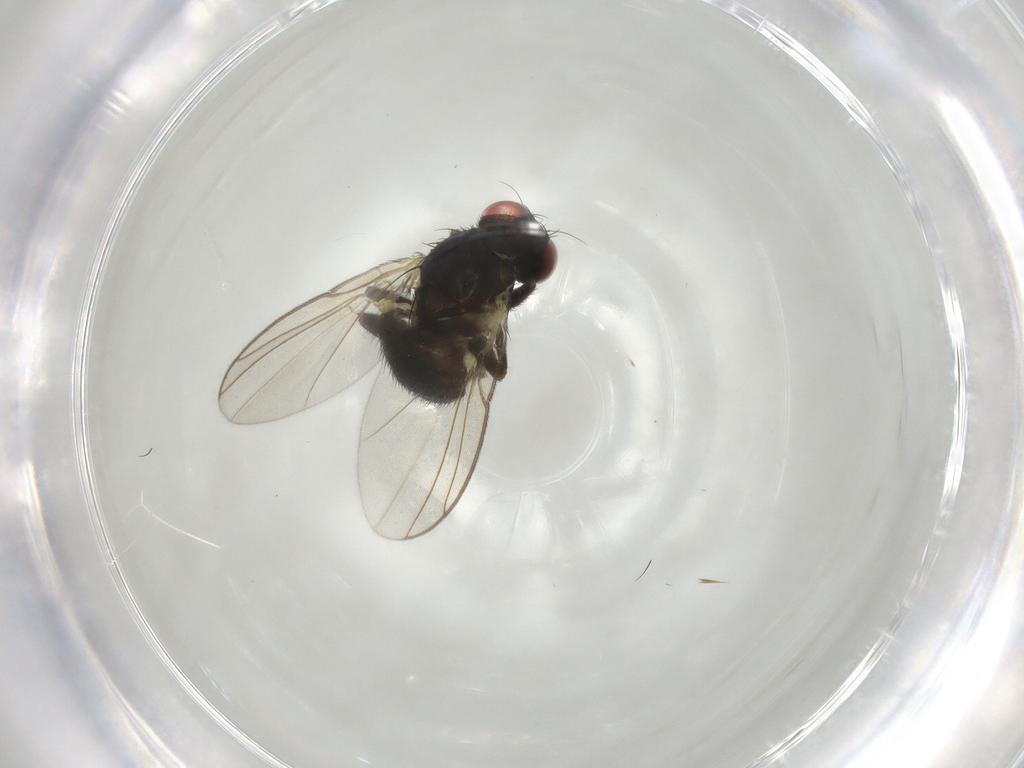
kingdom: Animalia
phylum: Arthropoda
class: Insecta
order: Diptera
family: Agromyzidae
